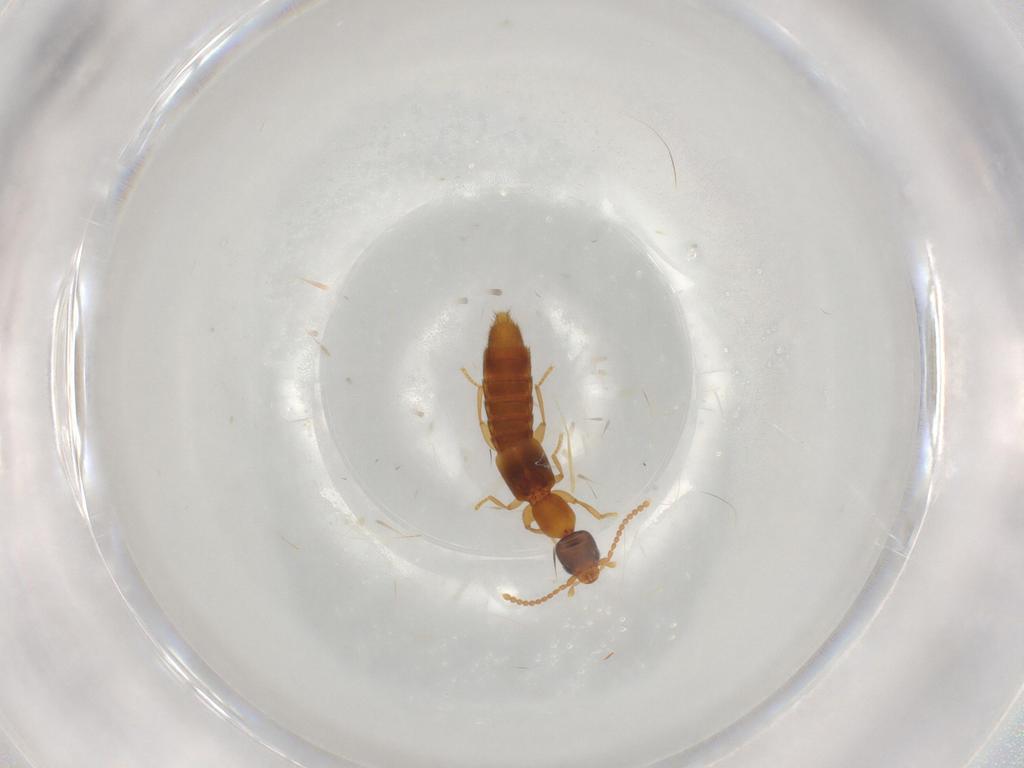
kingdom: Animalia
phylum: Arthropoda
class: Insecta
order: Coleoptera
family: Staphylinidae
